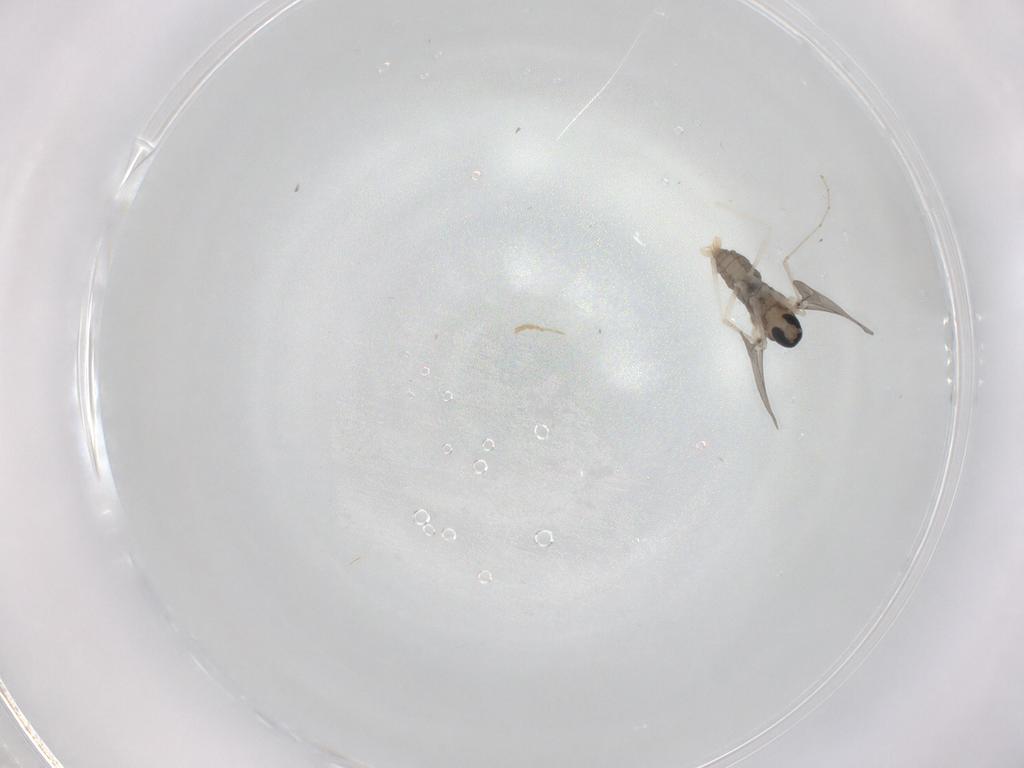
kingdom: Animalia
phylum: Arthropoda
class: Insecta
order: Diptera
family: Cecidomyiidae
